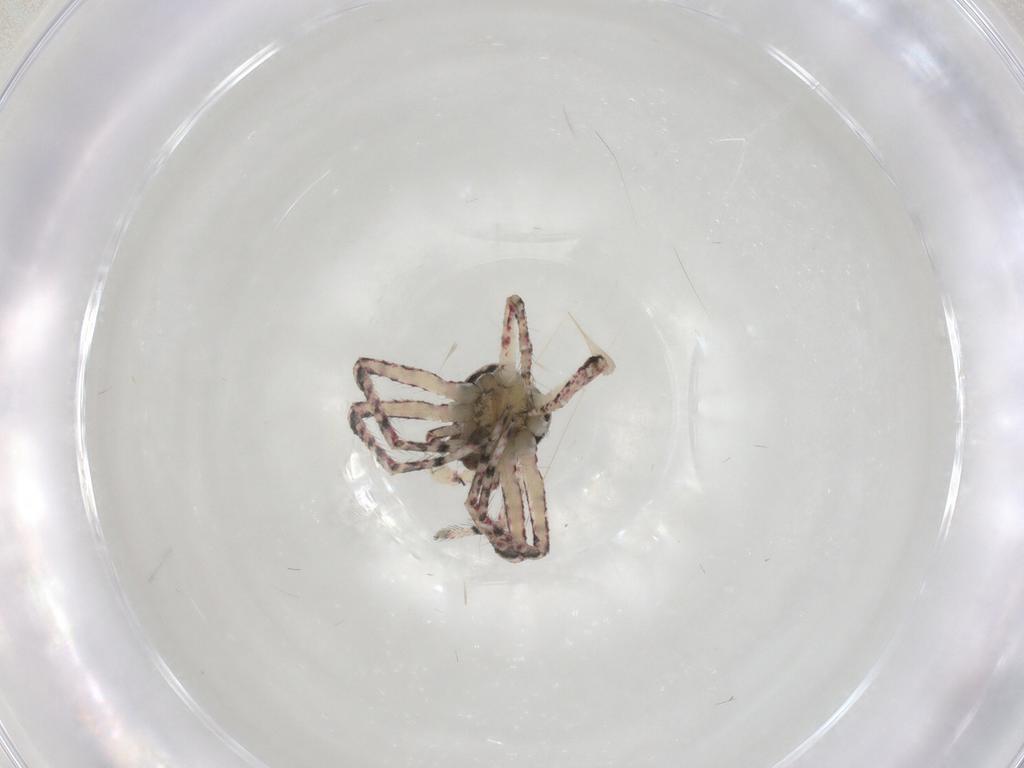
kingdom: Animalia
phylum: Arthropoda
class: Arachnida
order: Araneae
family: Thomisidae
